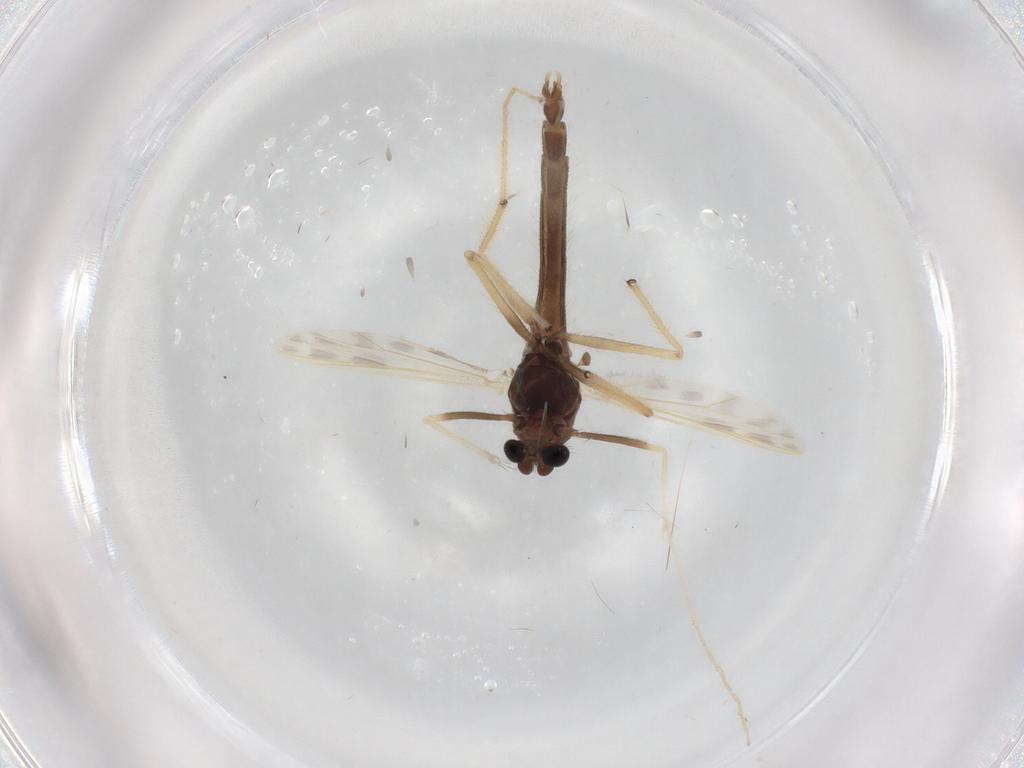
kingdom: Animalia
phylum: Arthropoda
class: Insecta
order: Diptera
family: Chironomidae
